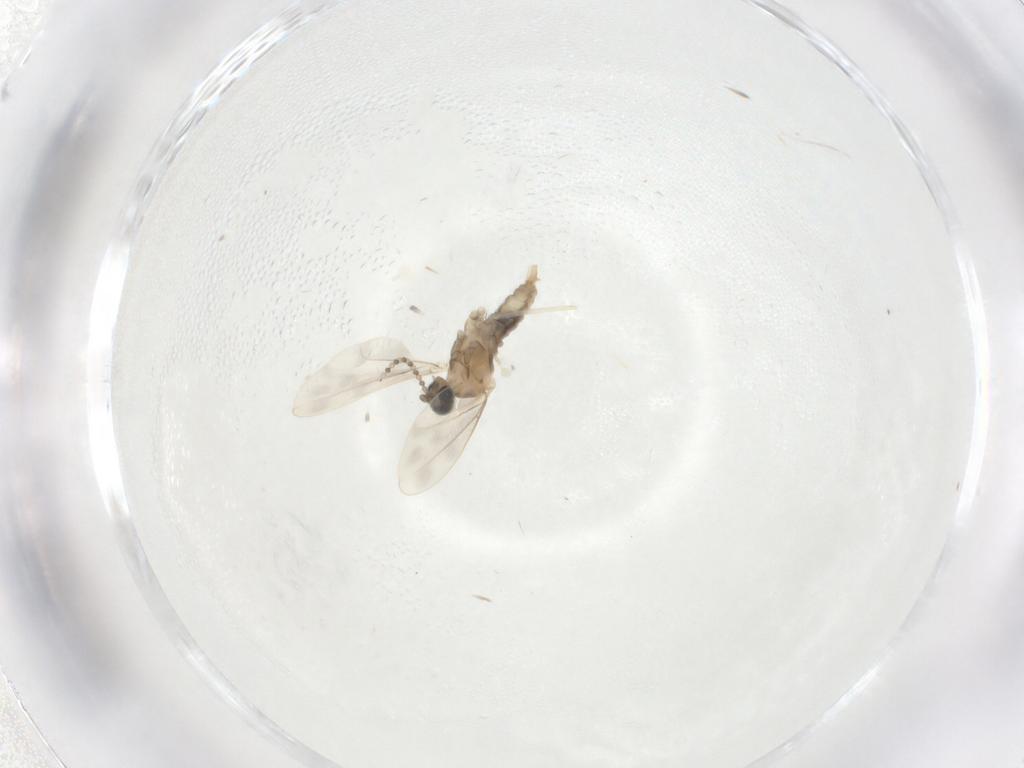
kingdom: Animalia
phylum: Arthropoda
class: Insecta
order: Diptera
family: Cecidomyiidae
